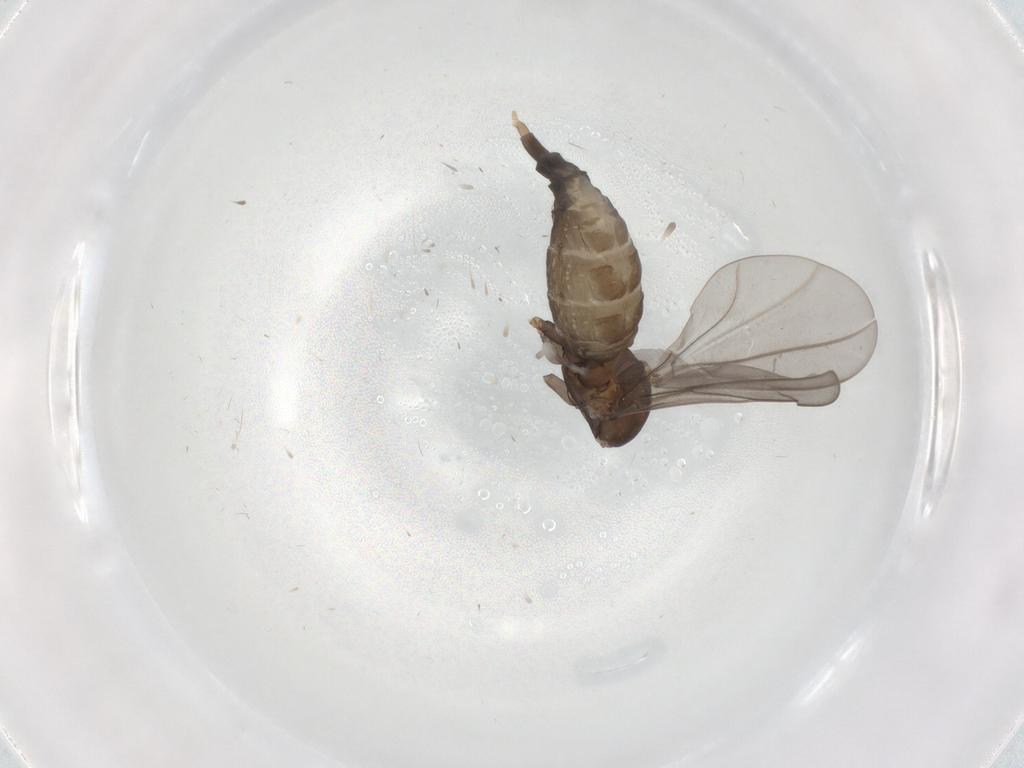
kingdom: Animalia
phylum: Arthropoda
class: Insecta
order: Diptera
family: Cecidomyiidae
